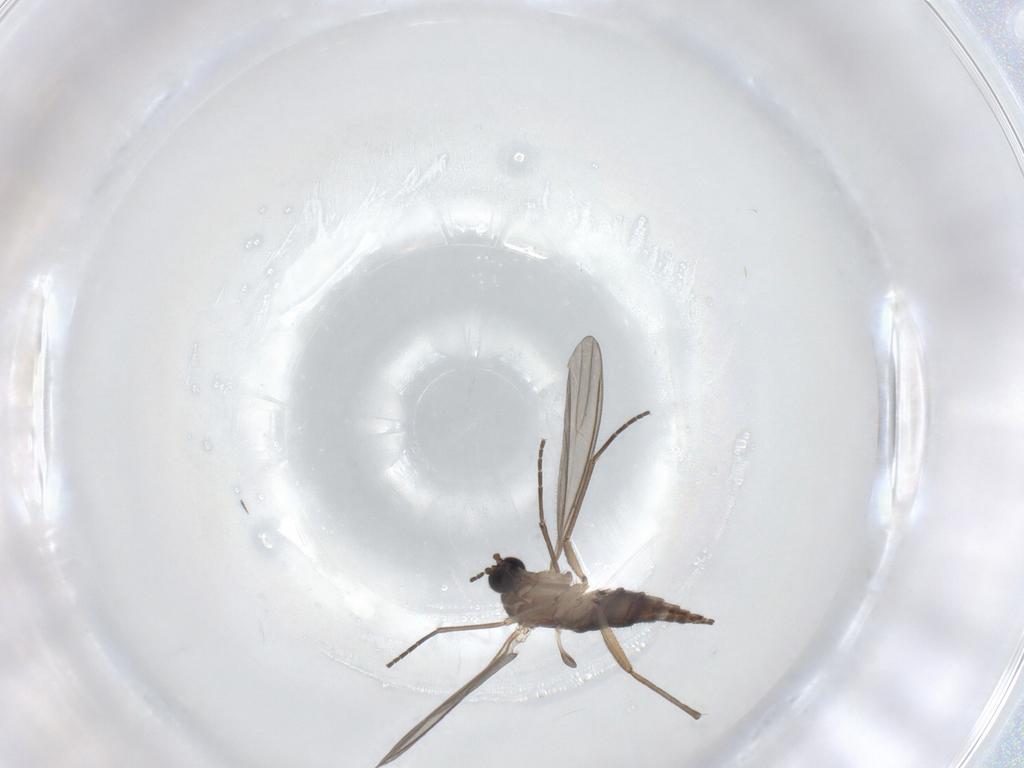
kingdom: Animalia
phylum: Arthropoda
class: Insecta
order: Diptera
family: Sciaridae
